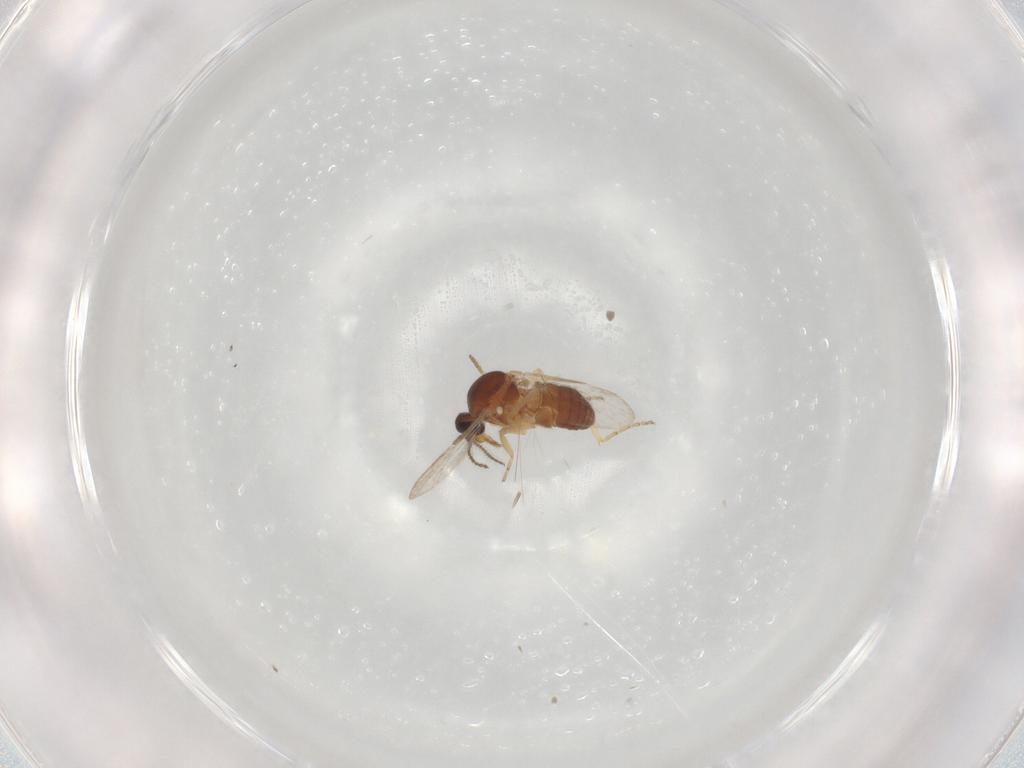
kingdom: Animalia
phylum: Arthropoda
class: Insecta
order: Diptera
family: Ceratopogonidae
